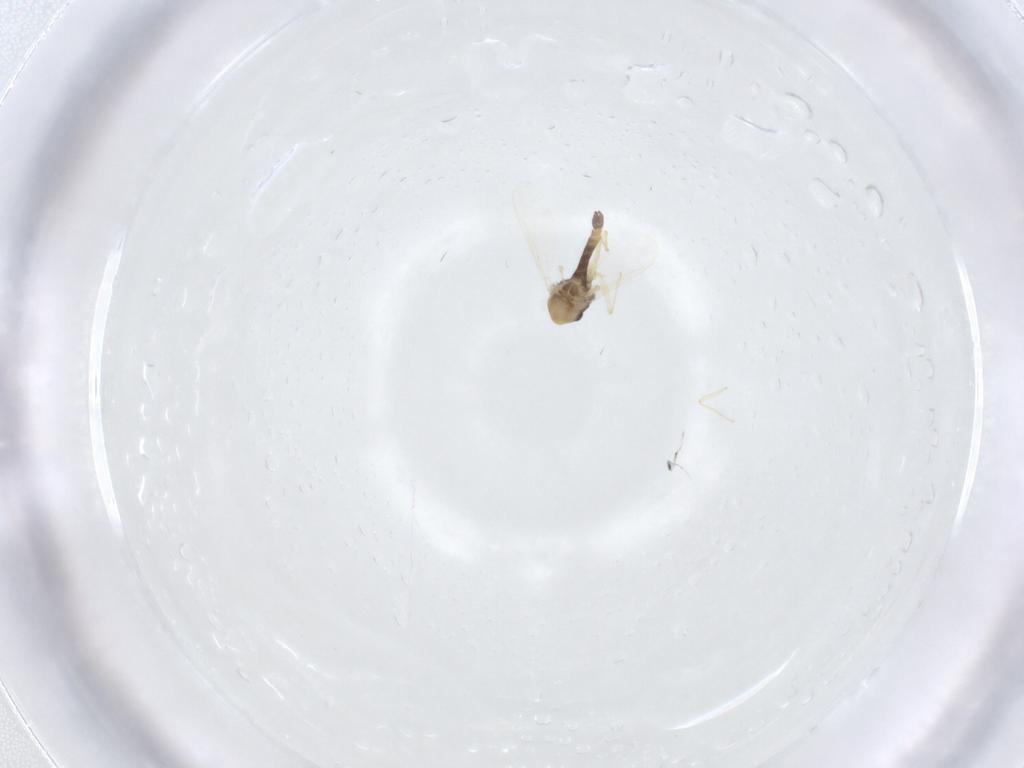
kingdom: Animalia
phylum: Arthropoda
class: Insecta
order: Diptera
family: Chironomidae
